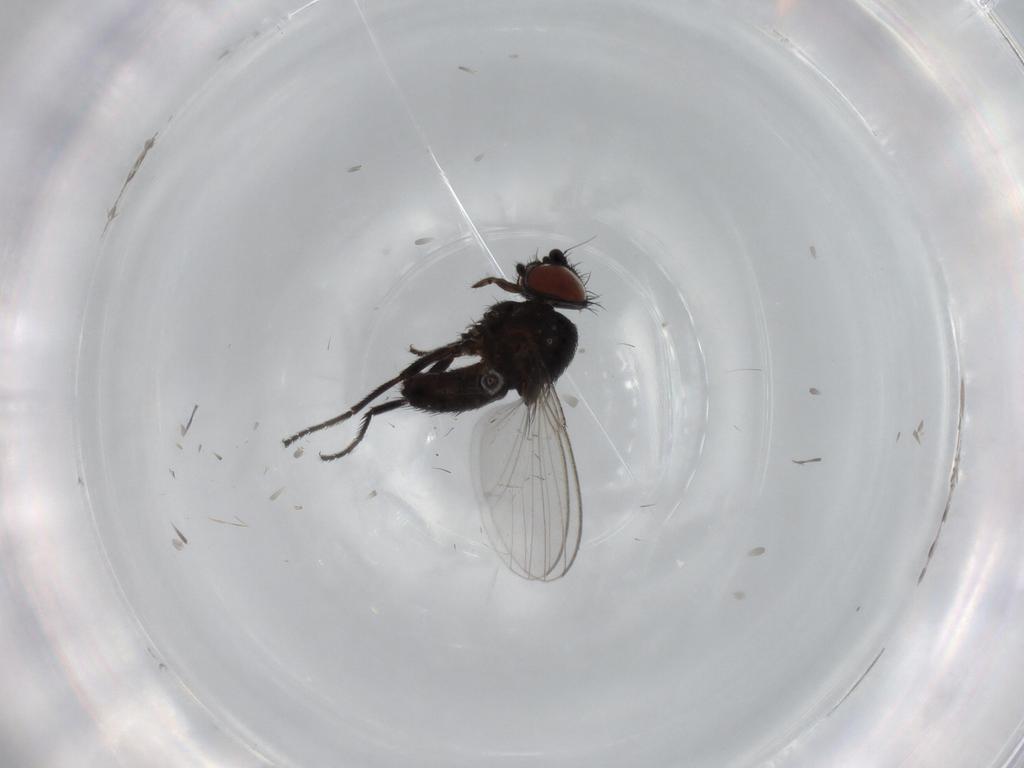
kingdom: Animalia
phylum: Arthropoda
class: Insecta
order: Diptera
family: Milichiidae
